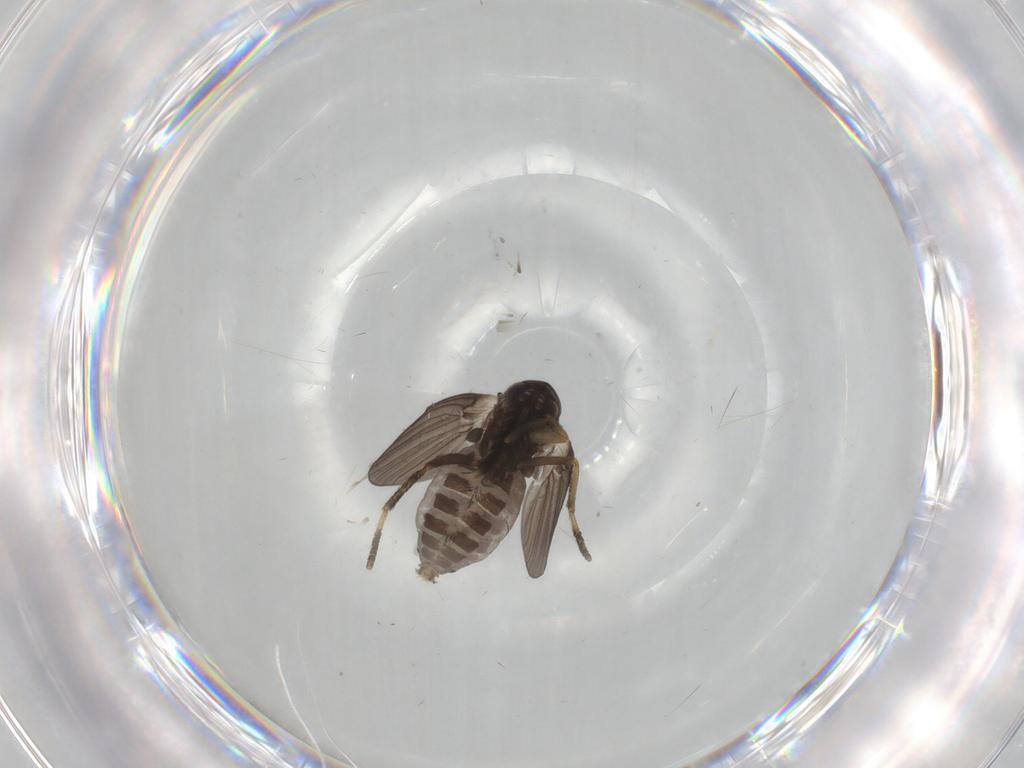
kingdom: Animalia
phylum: Arthropoda
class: Insecta
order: Diptera
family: Psychodidae
